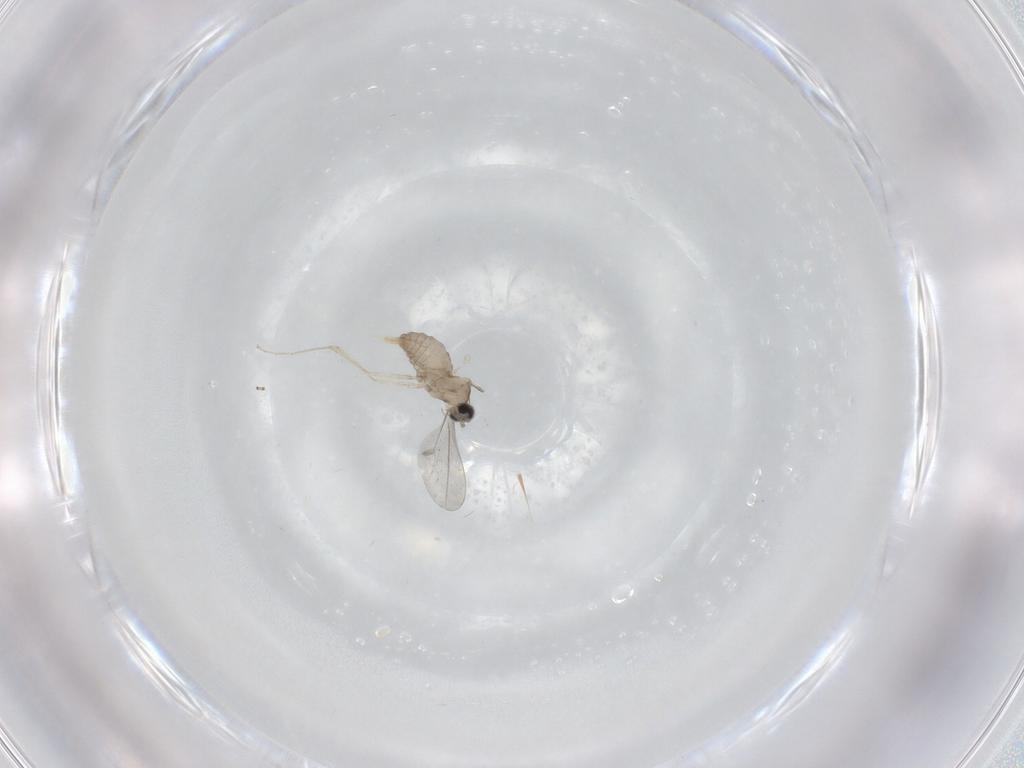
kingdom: Animalia
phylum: Arthropoda
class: Insecta
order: Diptera
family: Cecidomyiidae
